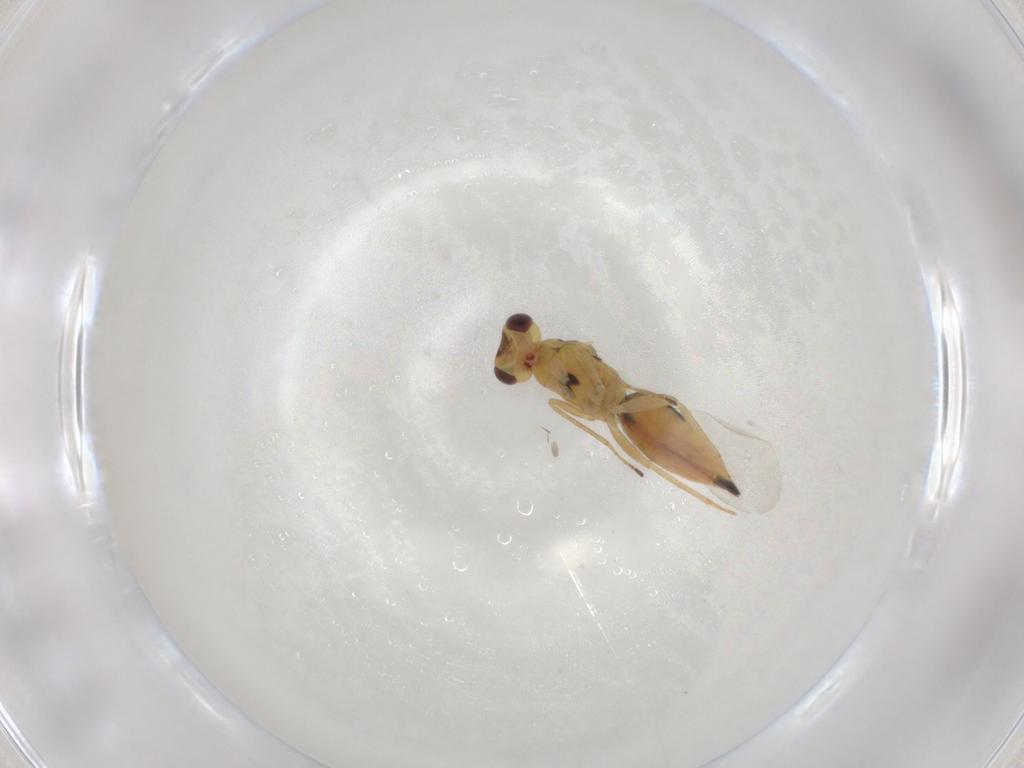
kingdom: Animalia
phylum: Arthropoda
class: Insecta
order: Hymenoptera
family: Eulophidae
